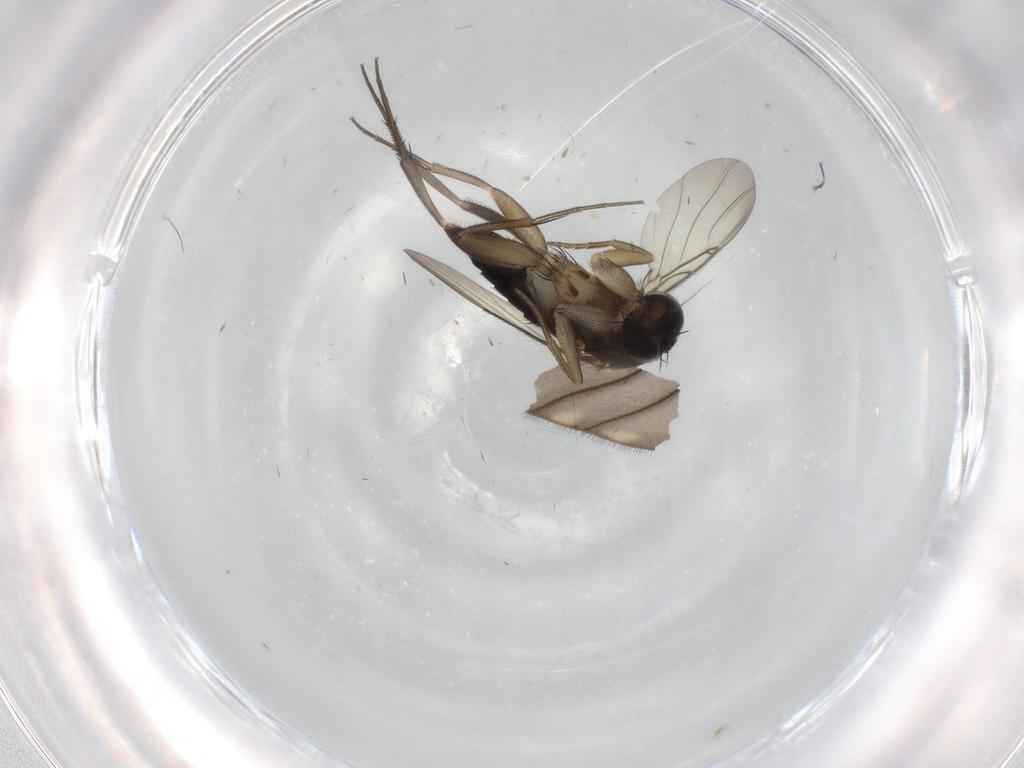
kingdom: Animalia
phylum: Arthropoda
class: Insecta
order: Diptera
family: Phoridae
